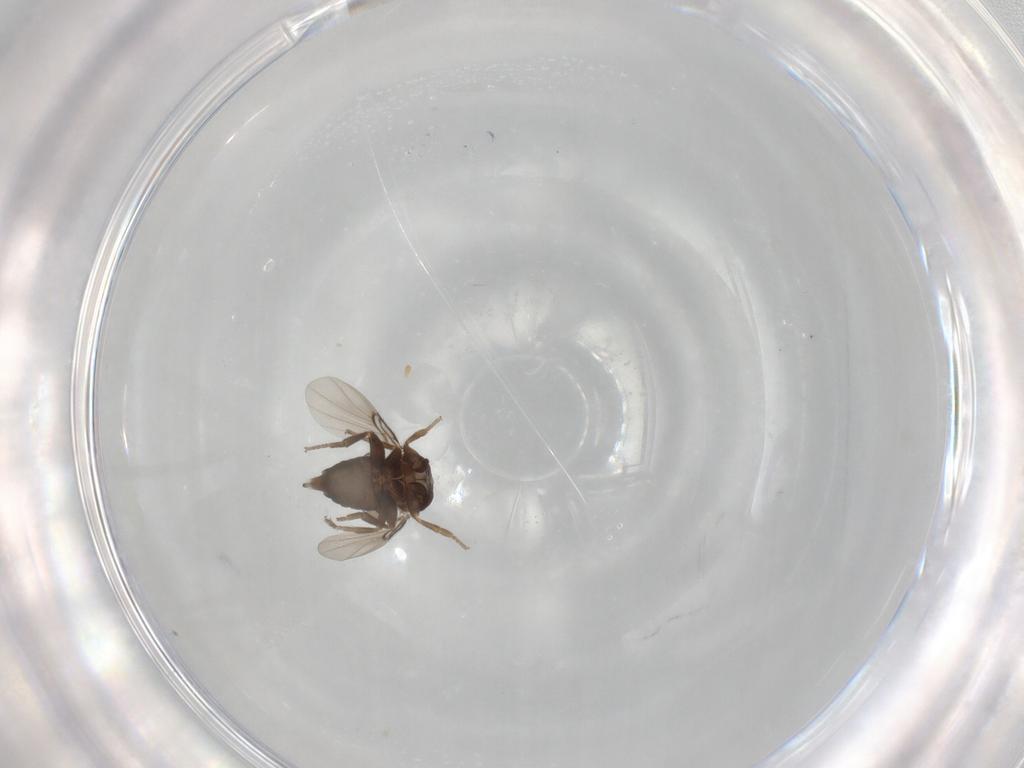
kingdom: Animalia
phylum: Arthropoda
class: Insecta
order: Diptera
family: Phoridae
